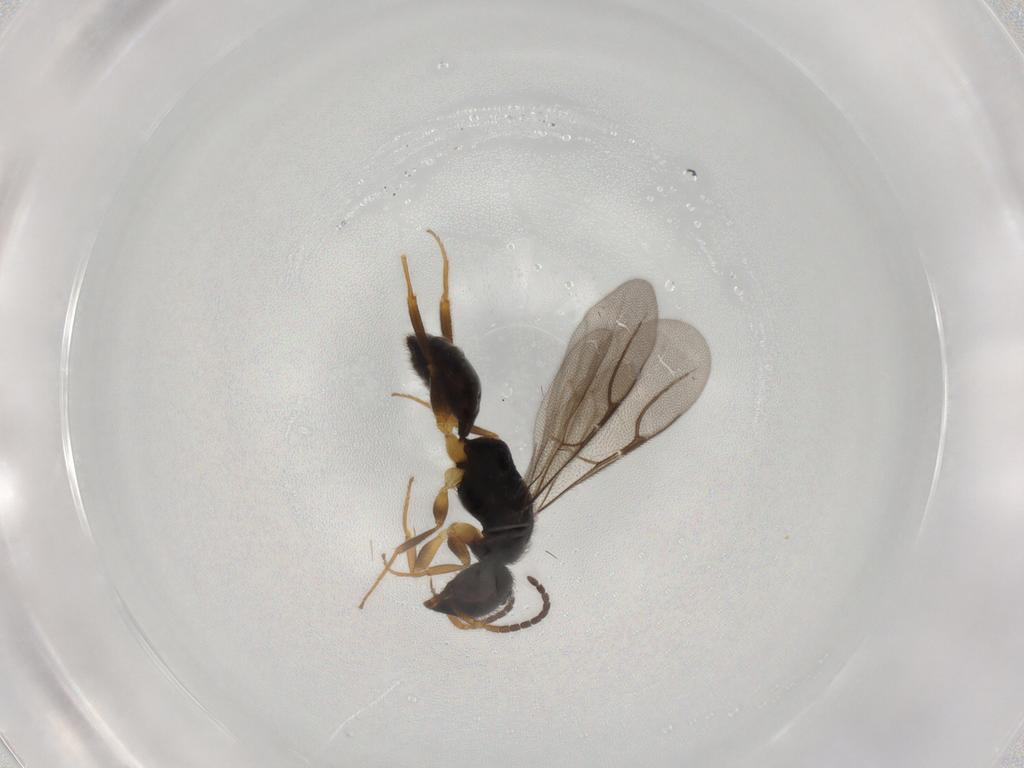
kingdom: Animalia
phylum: Arthropoda
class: Insecta
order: Hymenoptera
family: Bethylidae
